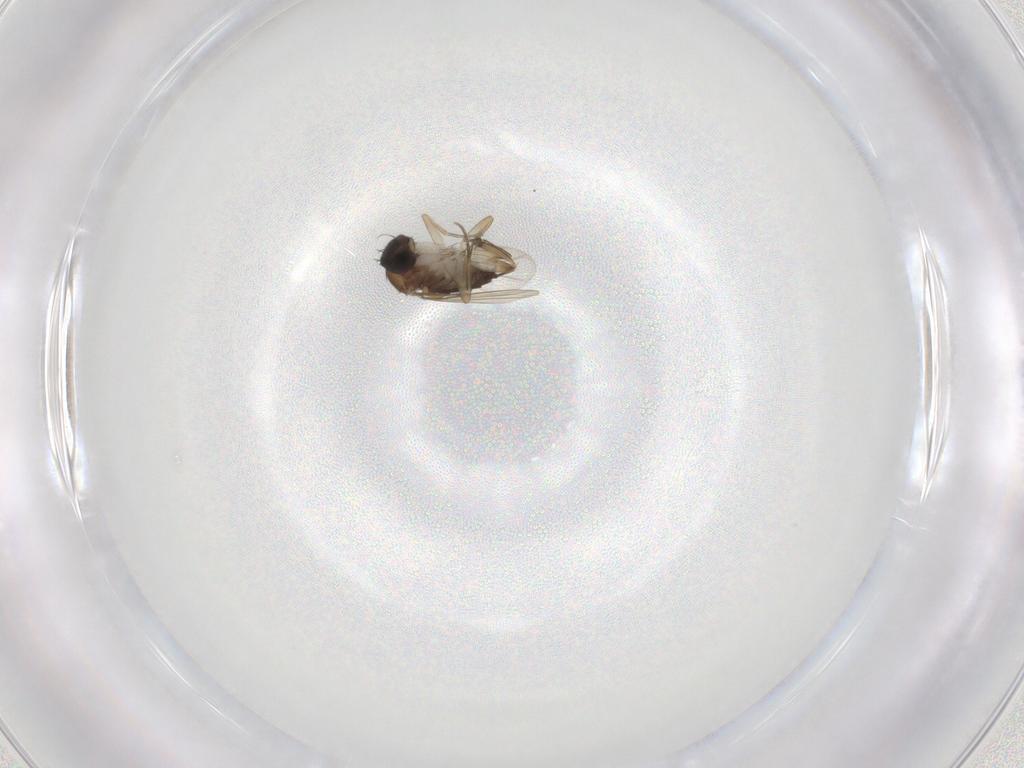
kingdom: Animalia
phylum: Arthropoda
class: Insecta
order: Diptera
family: Phoridae
